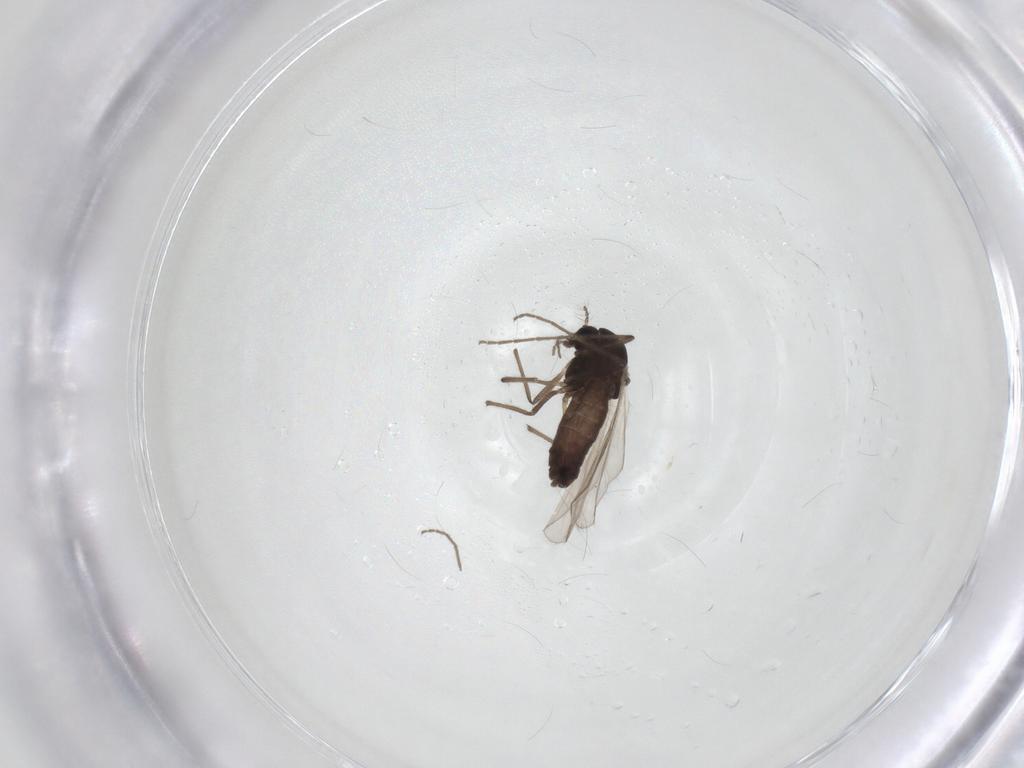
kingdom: Animalia
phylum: Arthropoda
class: Insecta
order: Diptera
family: Chironomidae
